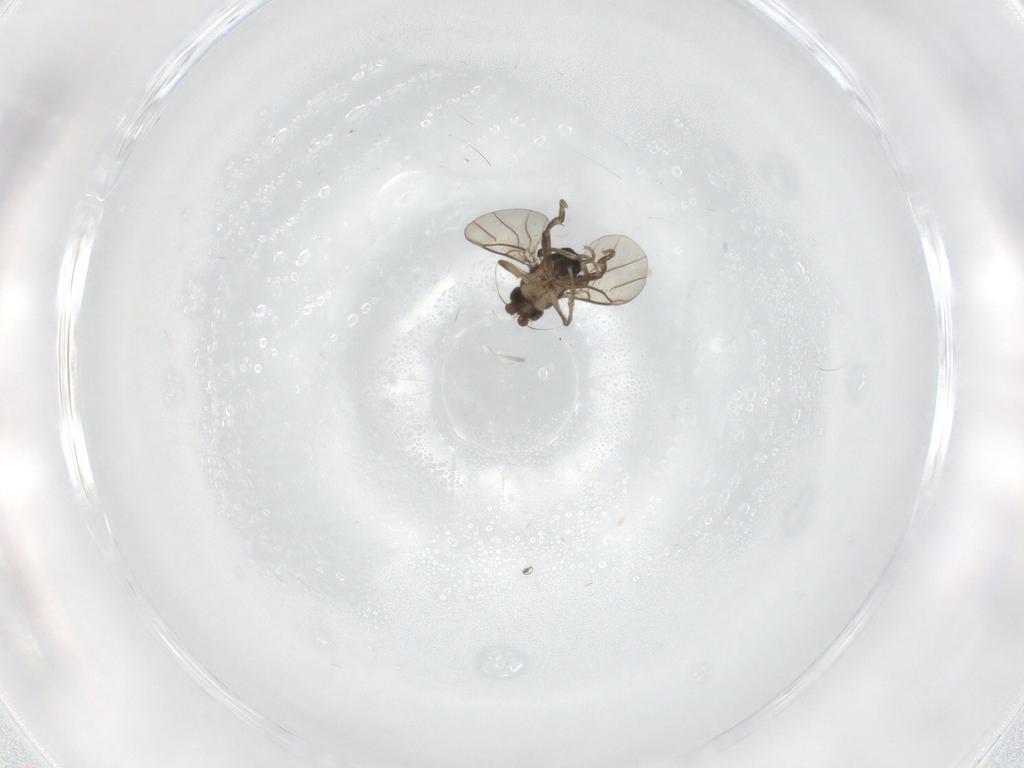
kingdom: Animalia
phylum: Arthropoda
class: Insecta
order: Diptera
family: Phoridae
